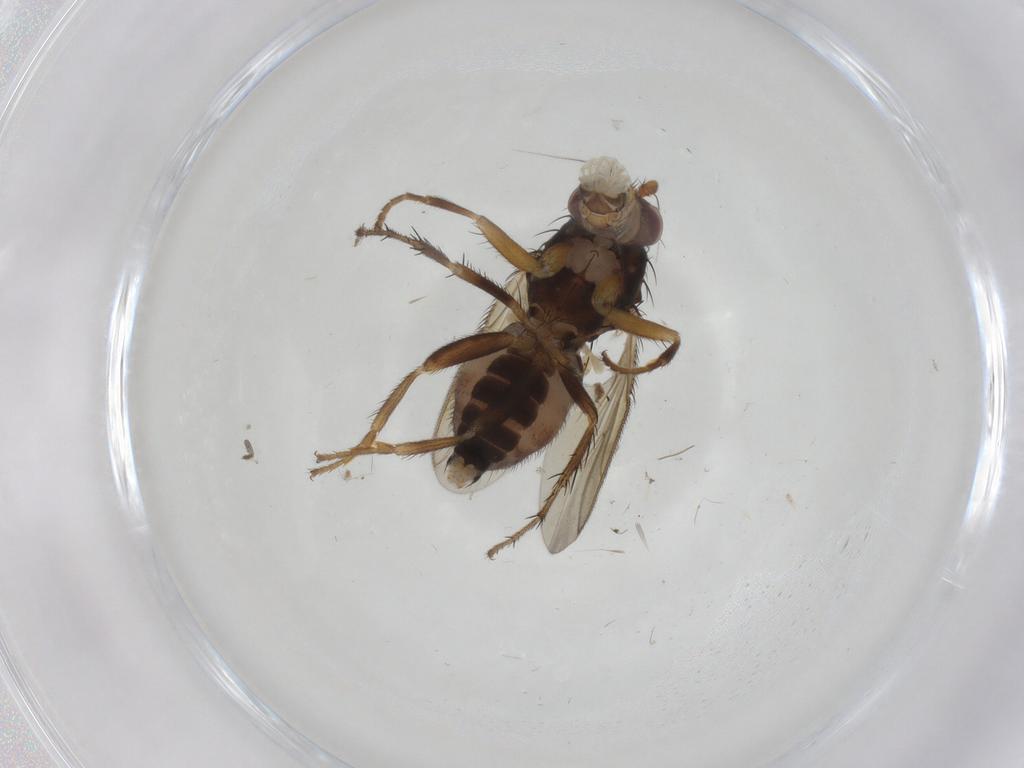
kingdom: Animalia
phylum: Arthropoda
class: Insecta
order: Diptera
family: Sphaeroceridae
